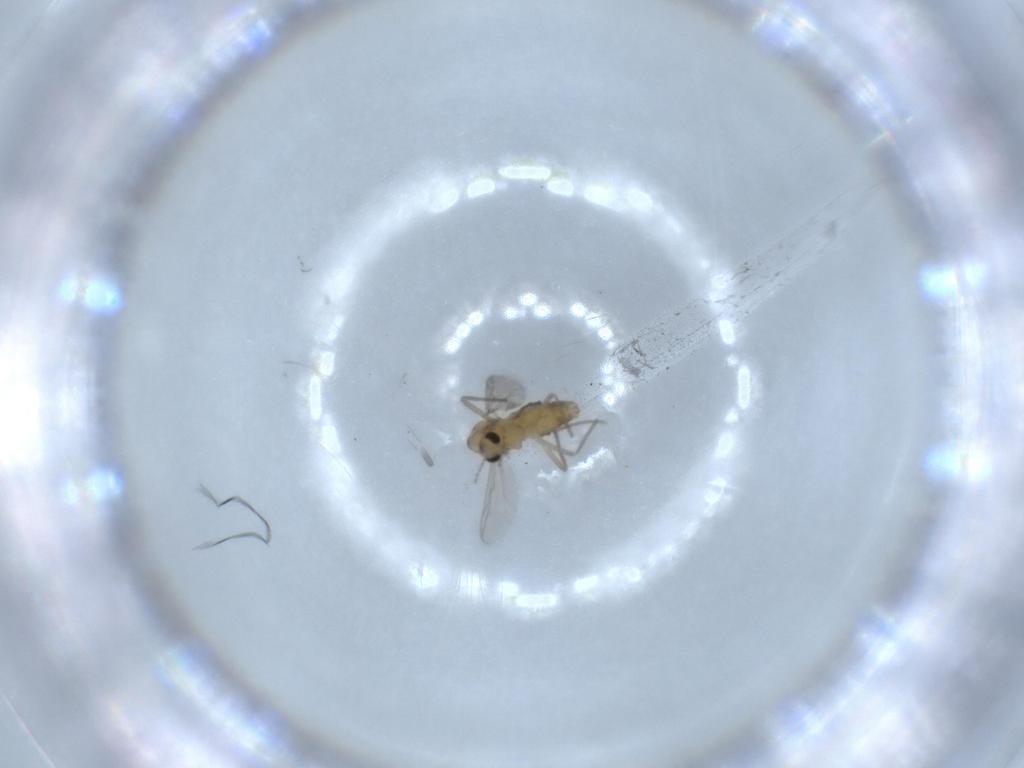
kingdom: Animalia
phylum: Arthropoda
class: Insecta
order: Diptera
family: Chironomidae
